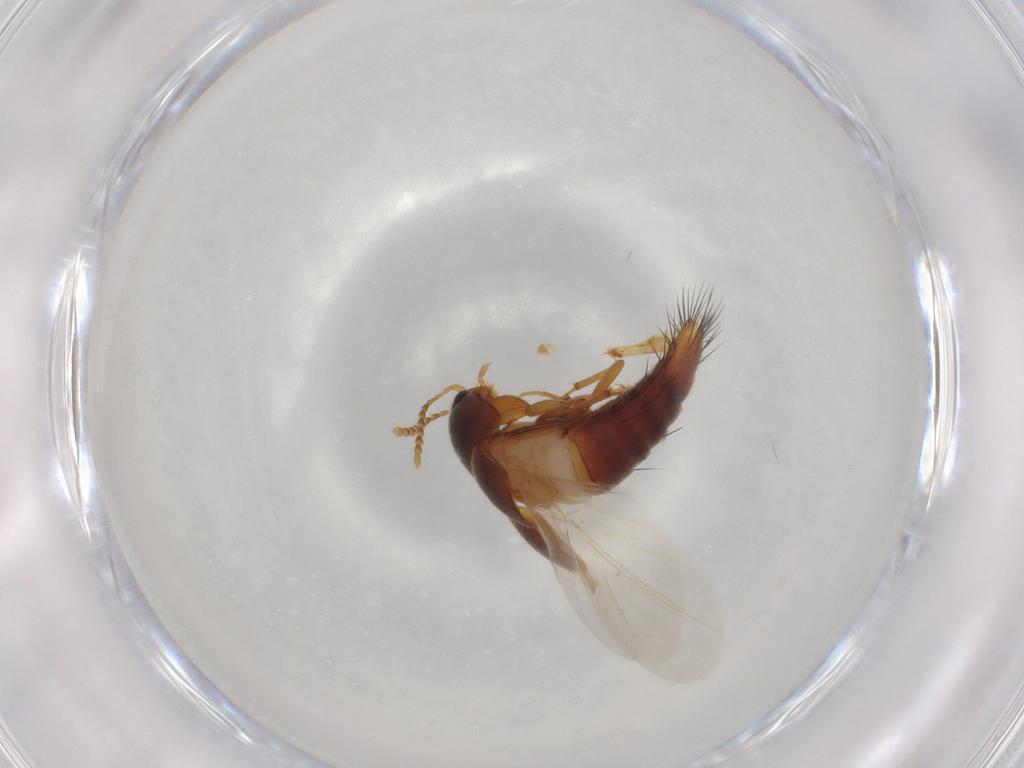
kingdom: Animalia
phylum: Arthropoda
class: Insecta
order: Coleoptera
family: Staphylinidae
